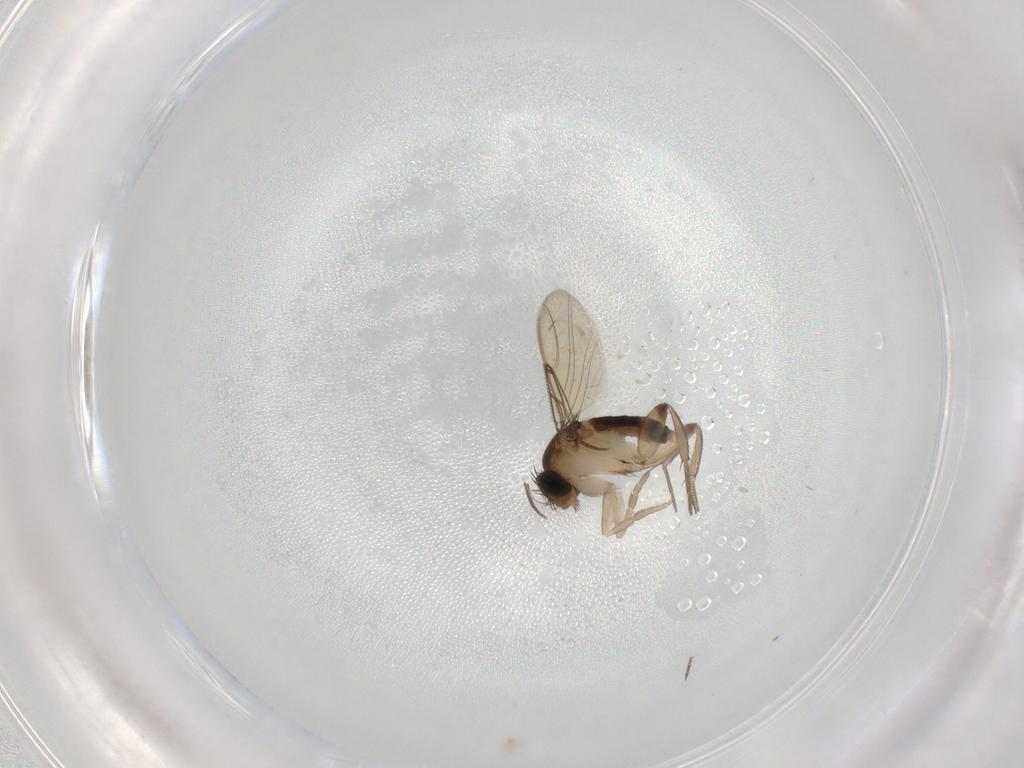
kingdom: Animalia
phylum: Arthropoda
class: Insecta
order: Diptera
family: Phoridae
